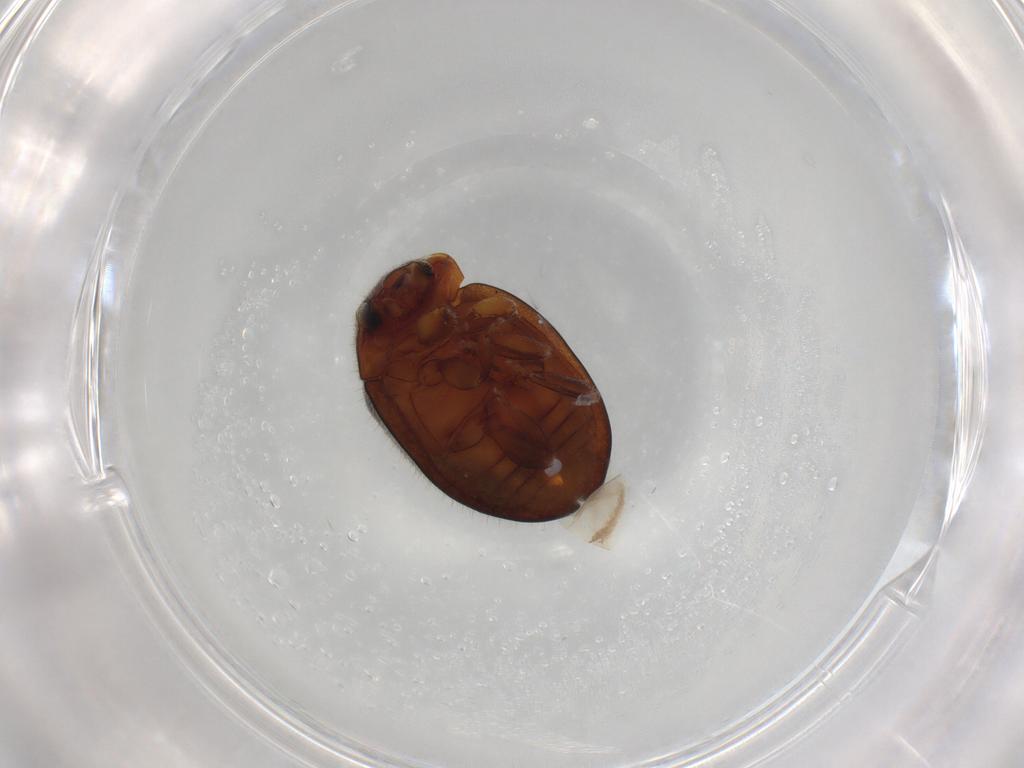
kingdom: Animalia
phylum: Arthropoda
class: Insecta
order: Coleoptera
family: Coccinellidae
